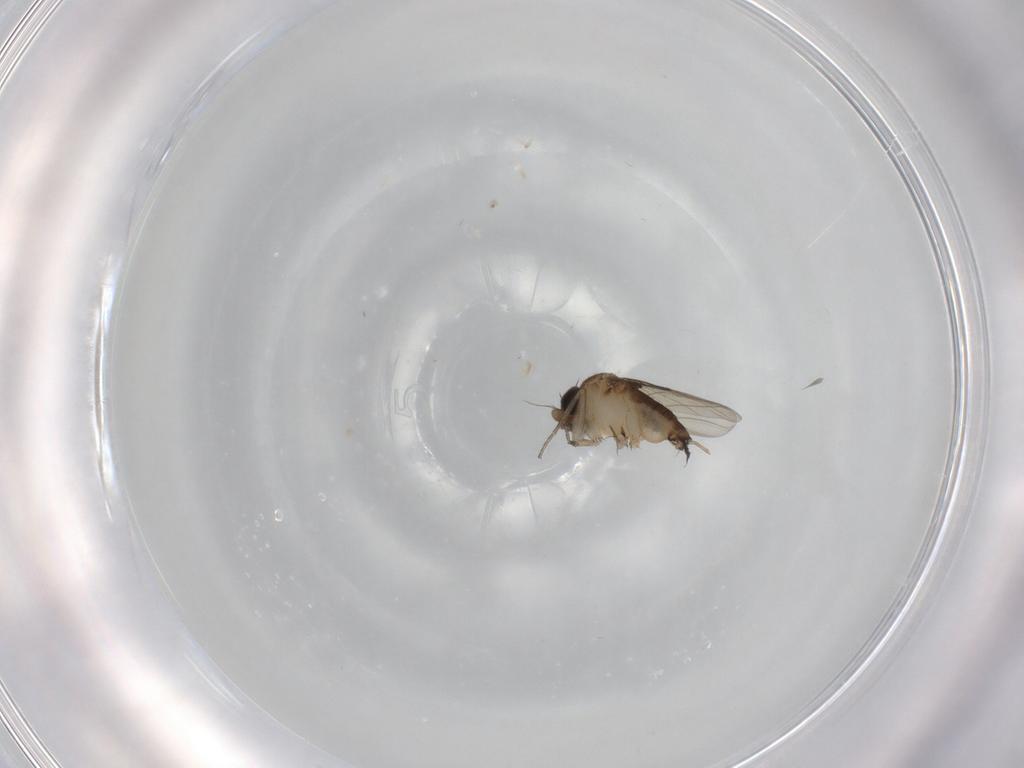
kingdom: Animalia
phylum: Arthropoda
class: Insecta
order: Diptera
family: Phoridae
